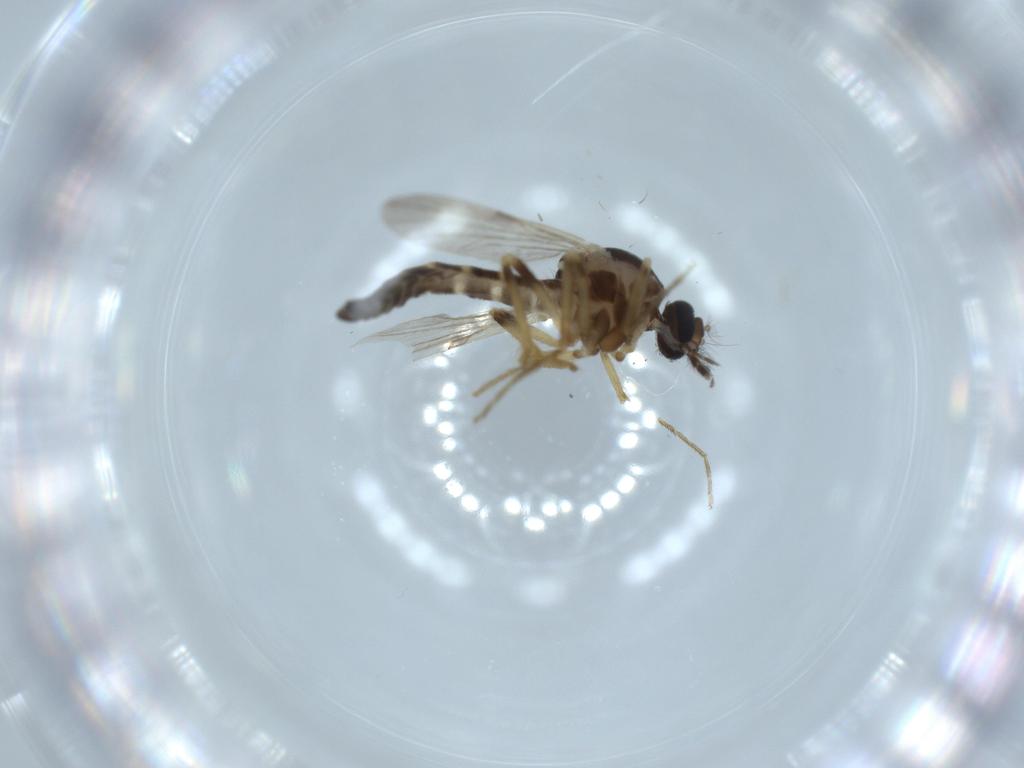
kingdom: Animalia
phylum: Arthropoda
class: Insecta
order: Diptera
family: Ceratopogonidae
